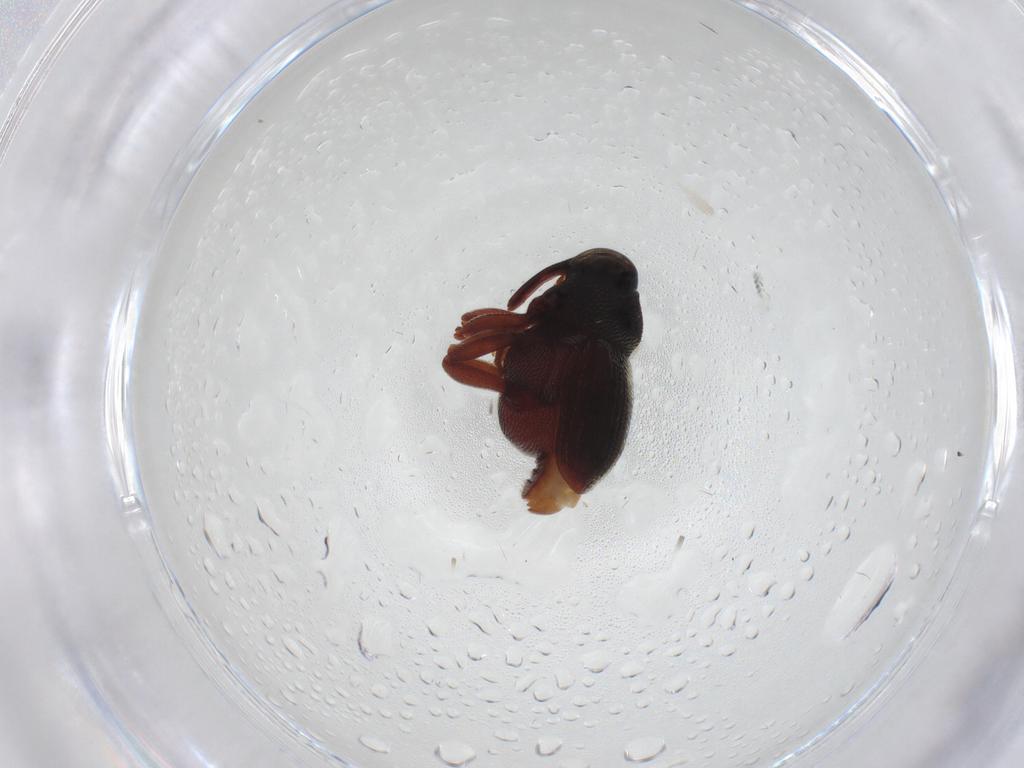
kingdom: Animalia
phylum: Arthropoda
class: Insecta
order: Coleoptera
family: Curculionidae
